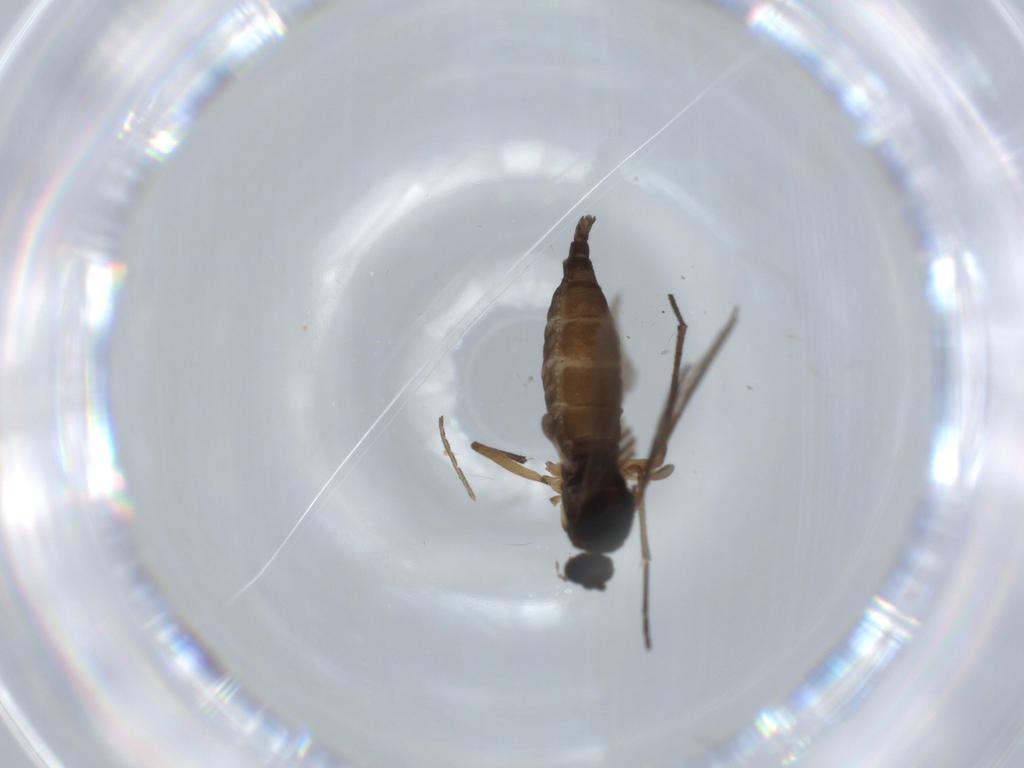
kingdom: Animalia
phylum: Arthropoda
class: Insecta
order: Diptera
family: Sciaridae
